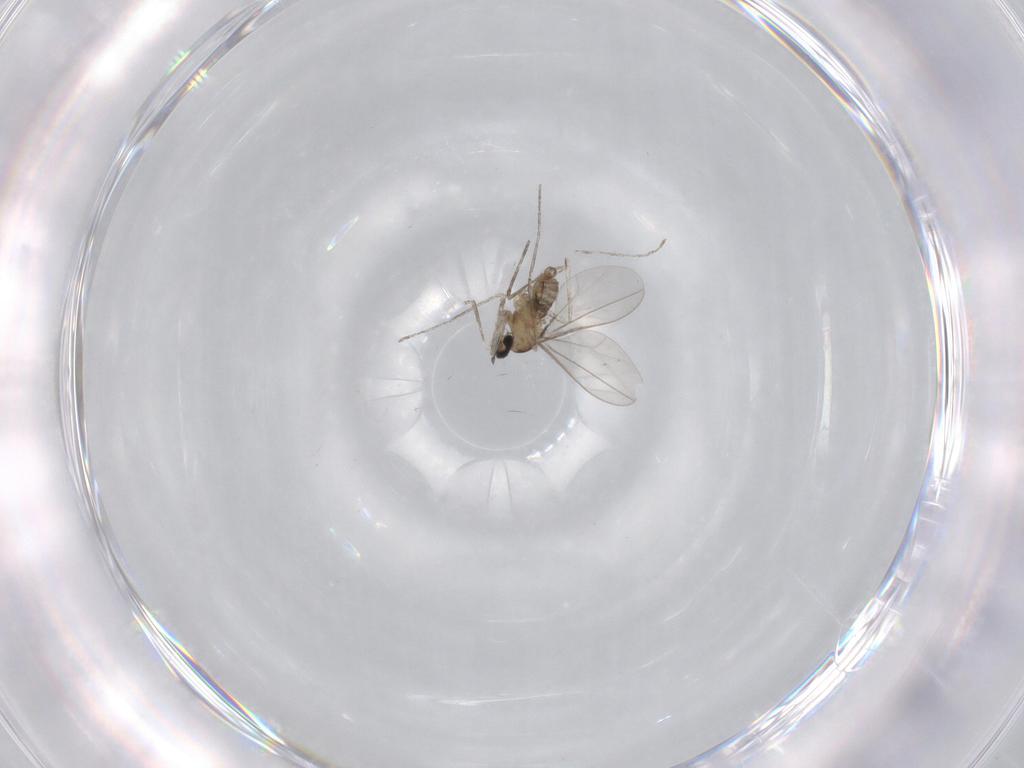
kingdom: Animalia
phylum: Arthropoda
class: Insecta
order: Diptera
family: Cecidomyiidae
